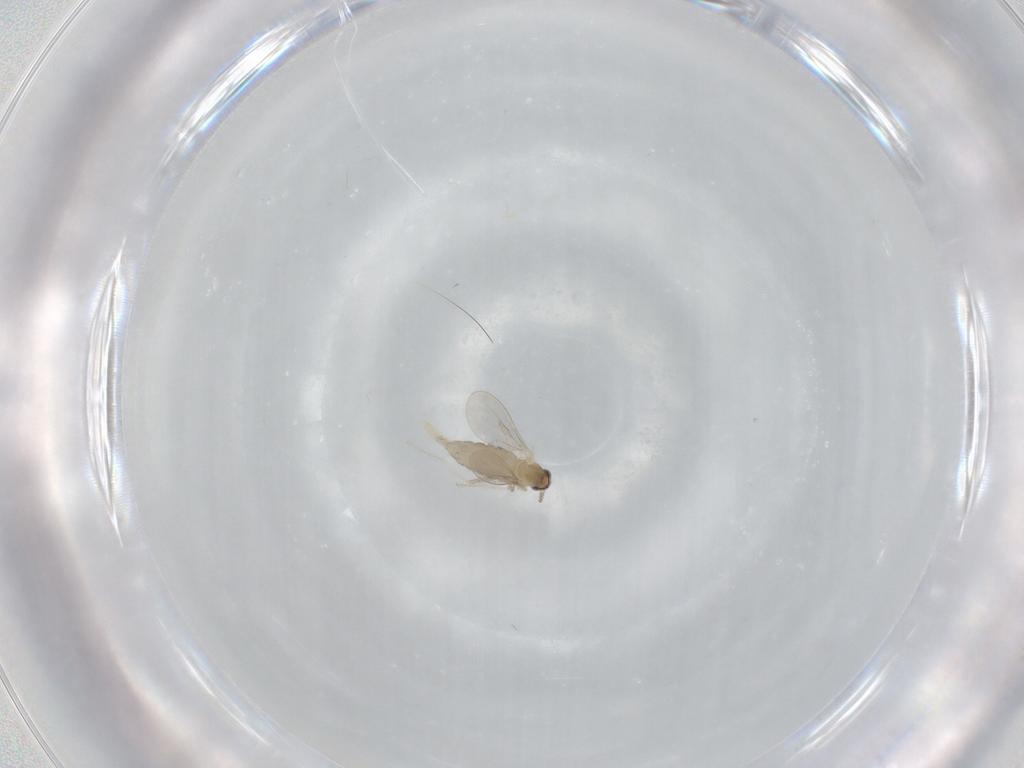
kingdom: Animalia
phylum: Arthropoda
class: Insecta
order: Diptera
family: Cecidomyiidae
